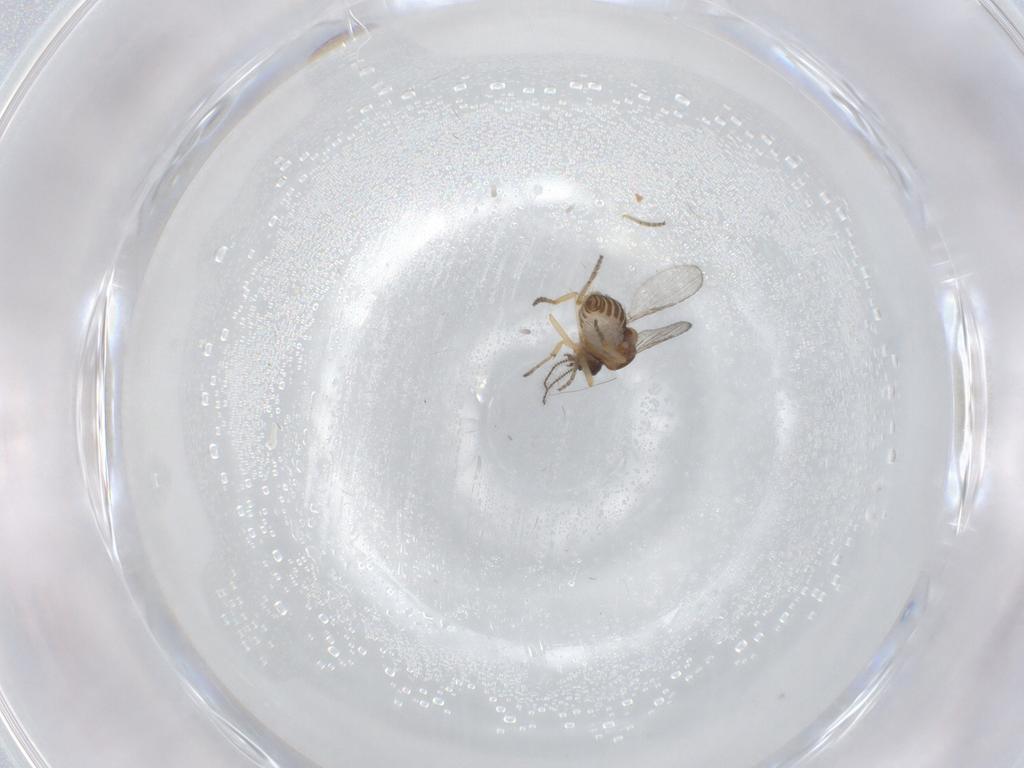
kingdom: Animalia
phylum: Arthropoda
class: Insecta
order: Diptera
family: Ceratopogonidae
